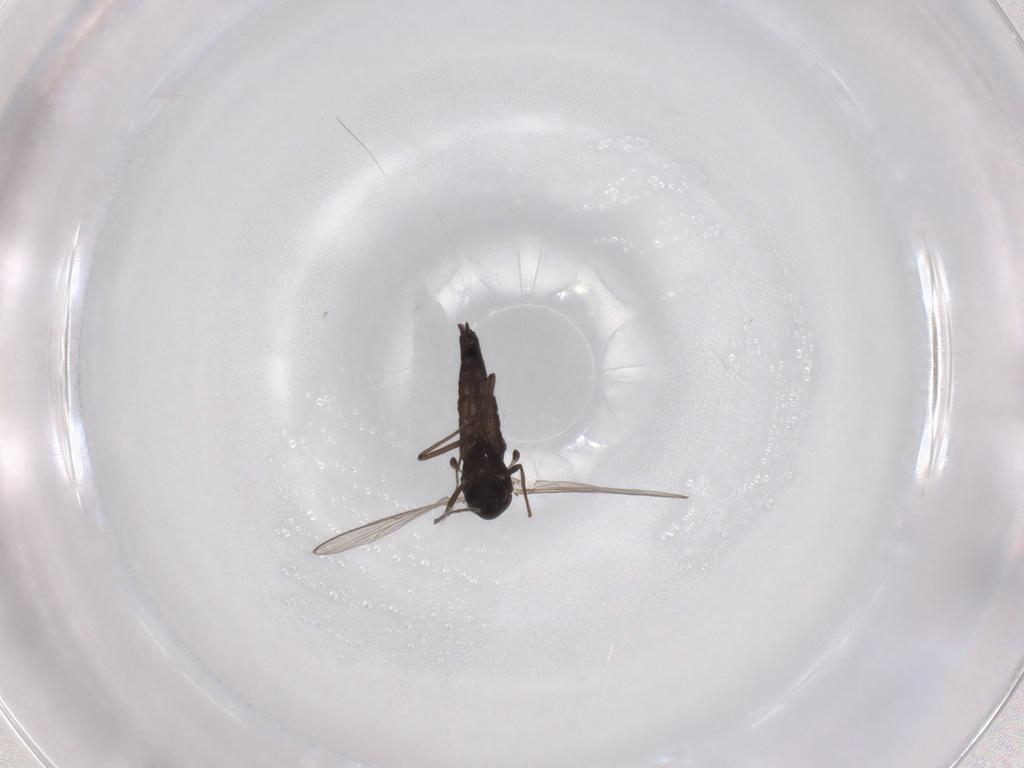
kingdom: Animalia
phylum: Arthropoda
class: Insecta
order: Diptera
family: Chironomidae
